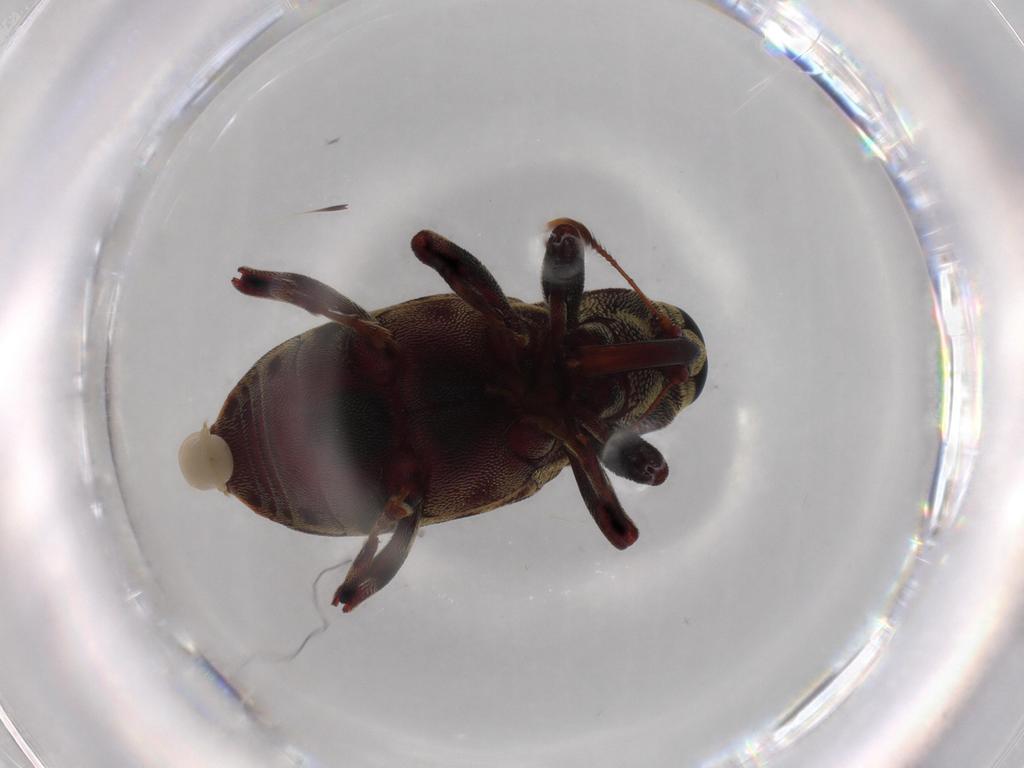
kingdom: Animalia
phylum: Arthropoda
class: Insecta
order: Coleoptera
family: Curculionidae
